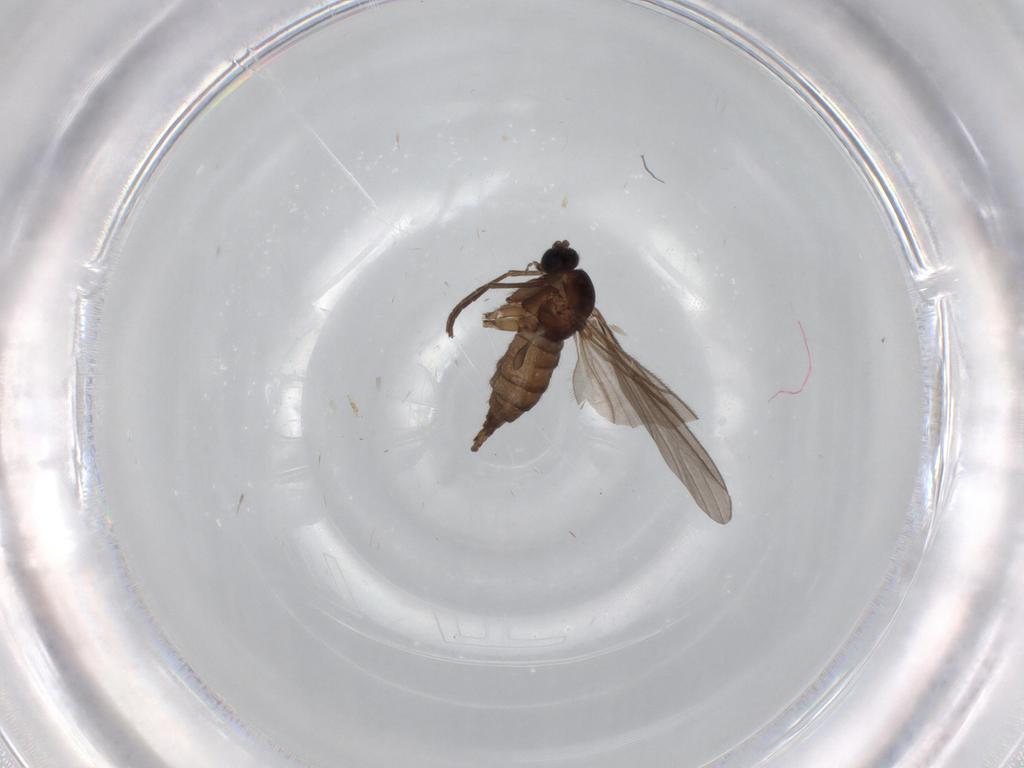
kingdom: Animalia
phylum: Arthropoda
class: Insecta
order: Diptera
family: Sciaridae
